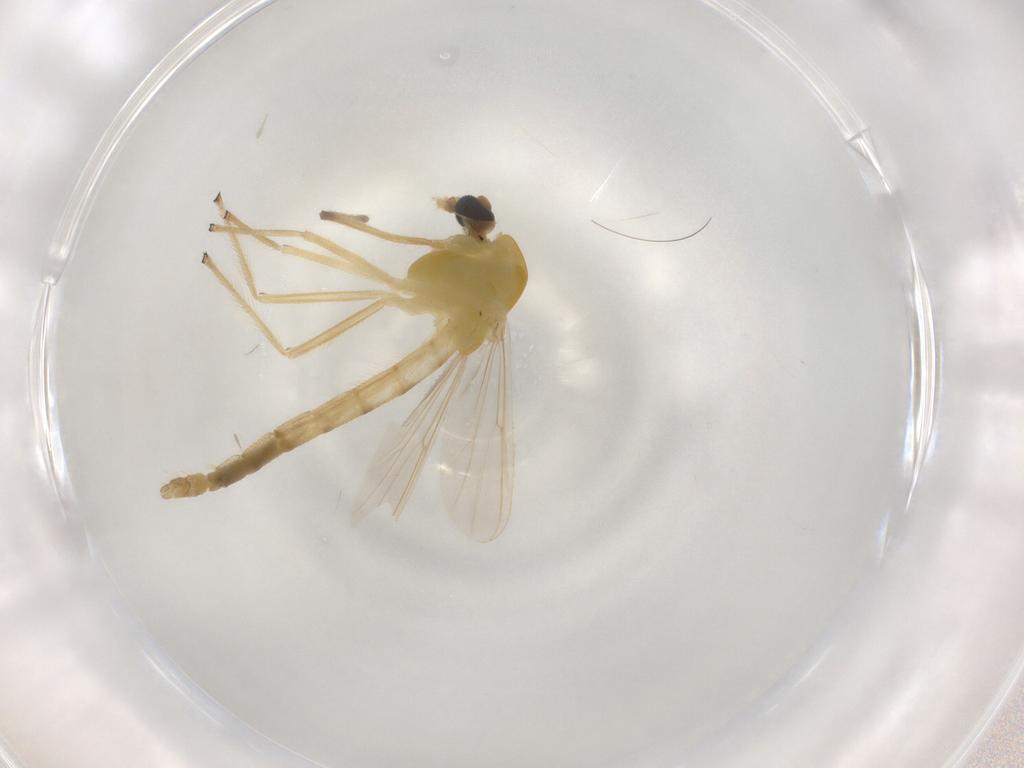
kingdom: Animalia
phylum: Arthropoda
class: Insecta
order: Diptera
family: Chironomidae
